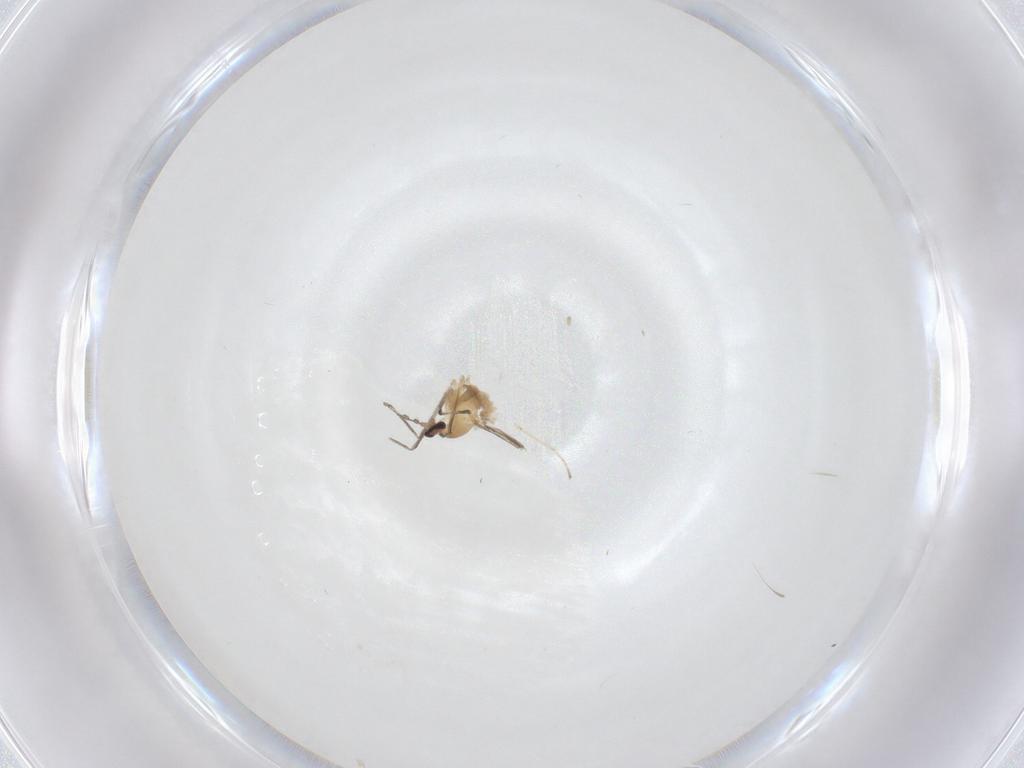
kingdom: Animalia
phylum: Arthropoda
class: Insecta
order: Diptera
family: Cecidomyiidae
